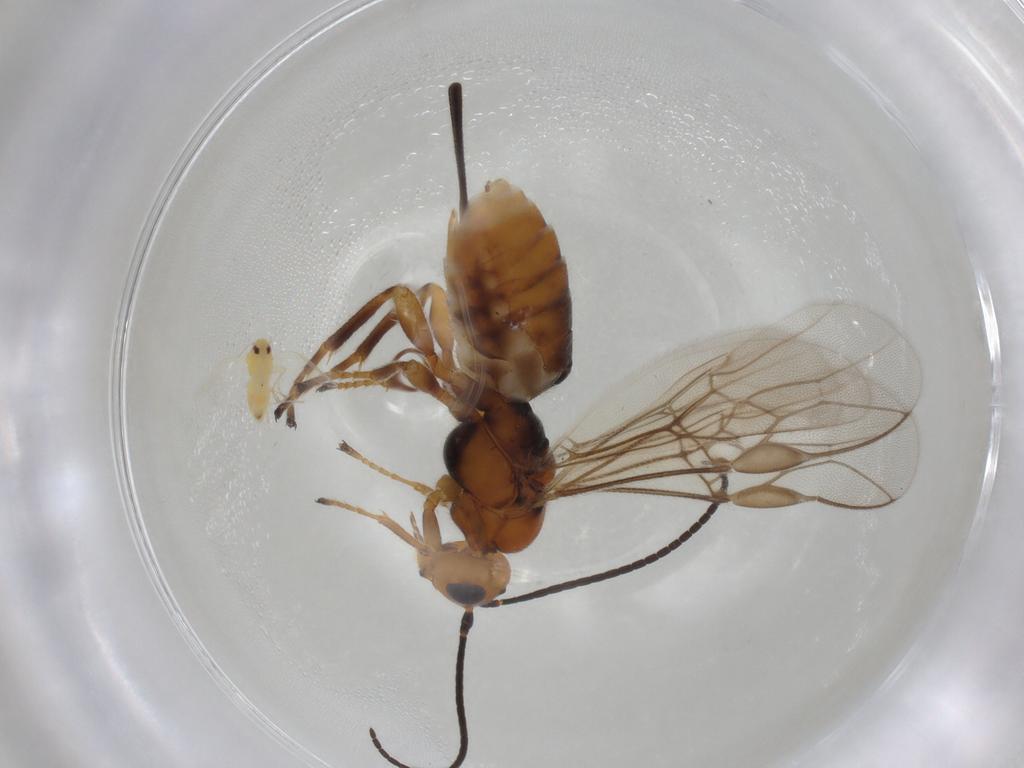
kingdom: Animalia
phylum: Arthropoda
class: Insecta
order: Hymenoptera
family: Braconidae
